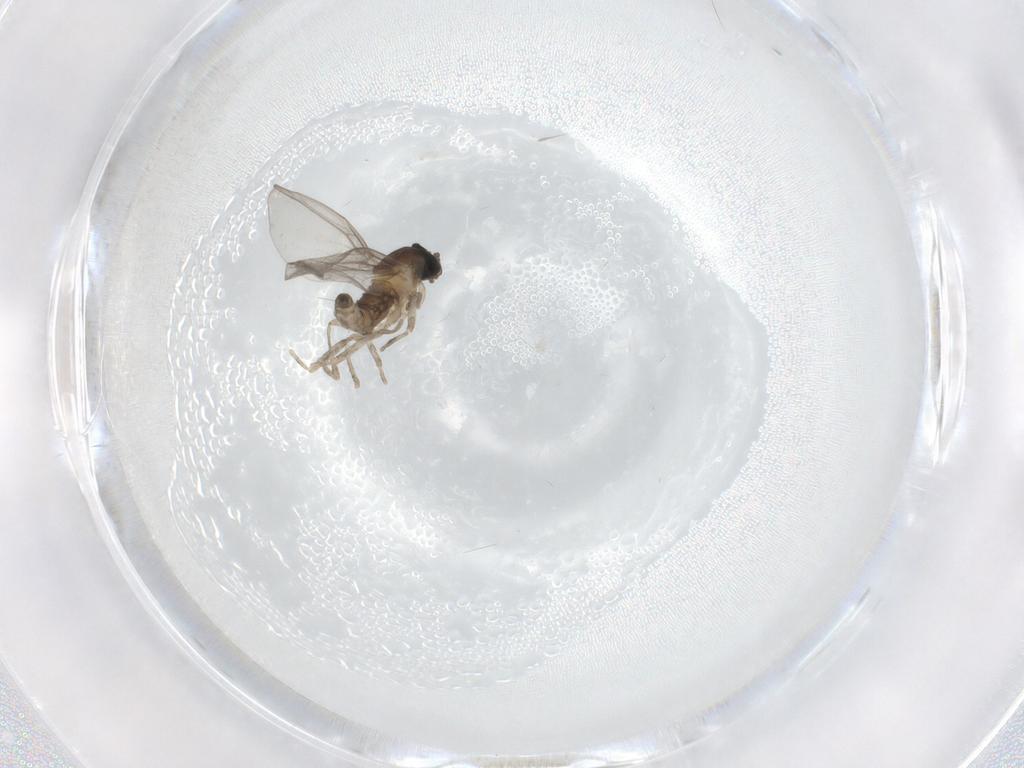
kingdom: Animalia
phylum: Arthropoda
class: Insecta
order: Diptera
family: Cecidomyiidae
